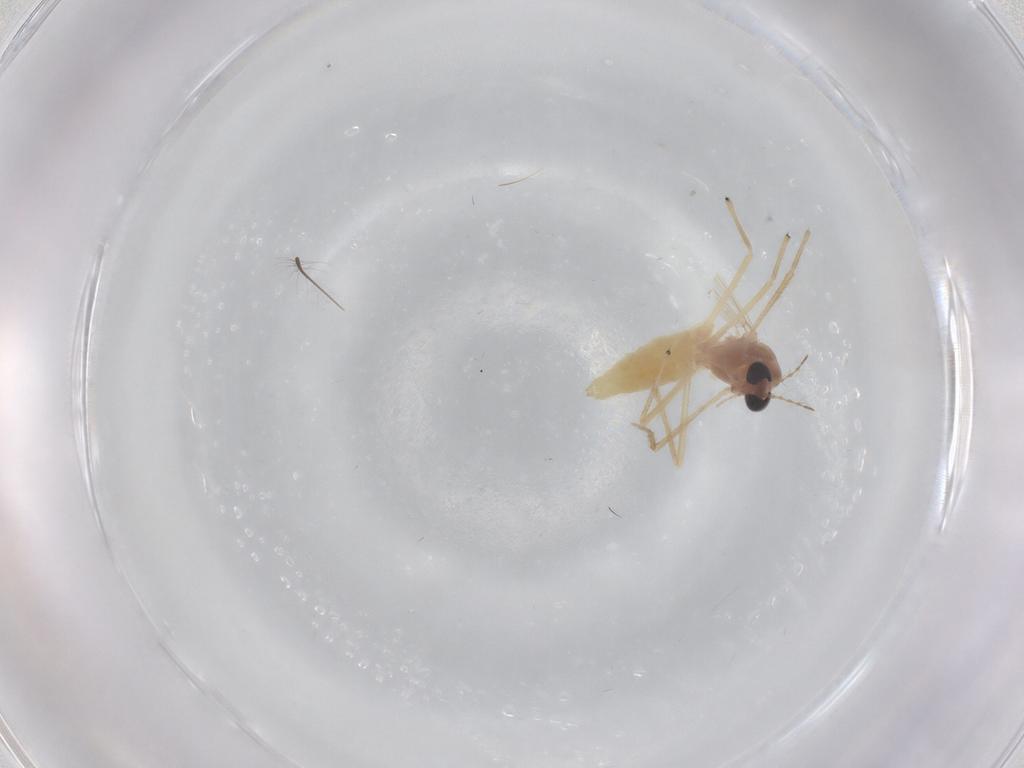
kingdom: Animalia
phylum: Arthropoda
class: Insecta
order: Diptera
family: Chironomidae
